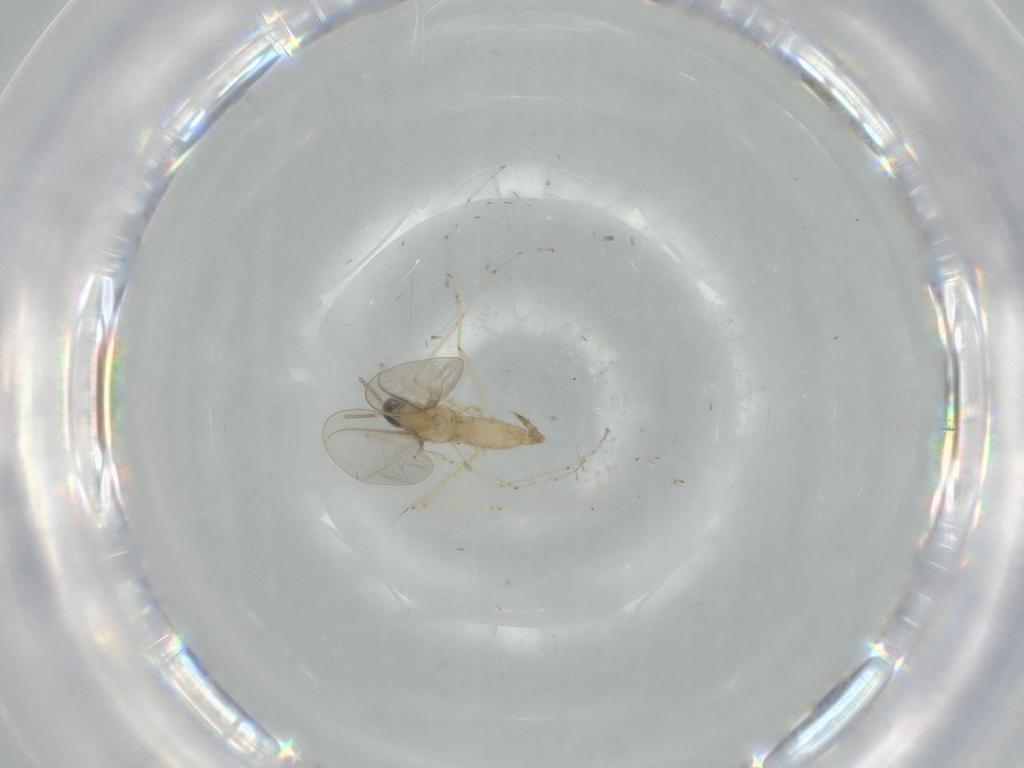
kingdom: Animalia
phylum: Arthropoda
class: Insecta
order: Diptera
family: Cecidomyiidae
